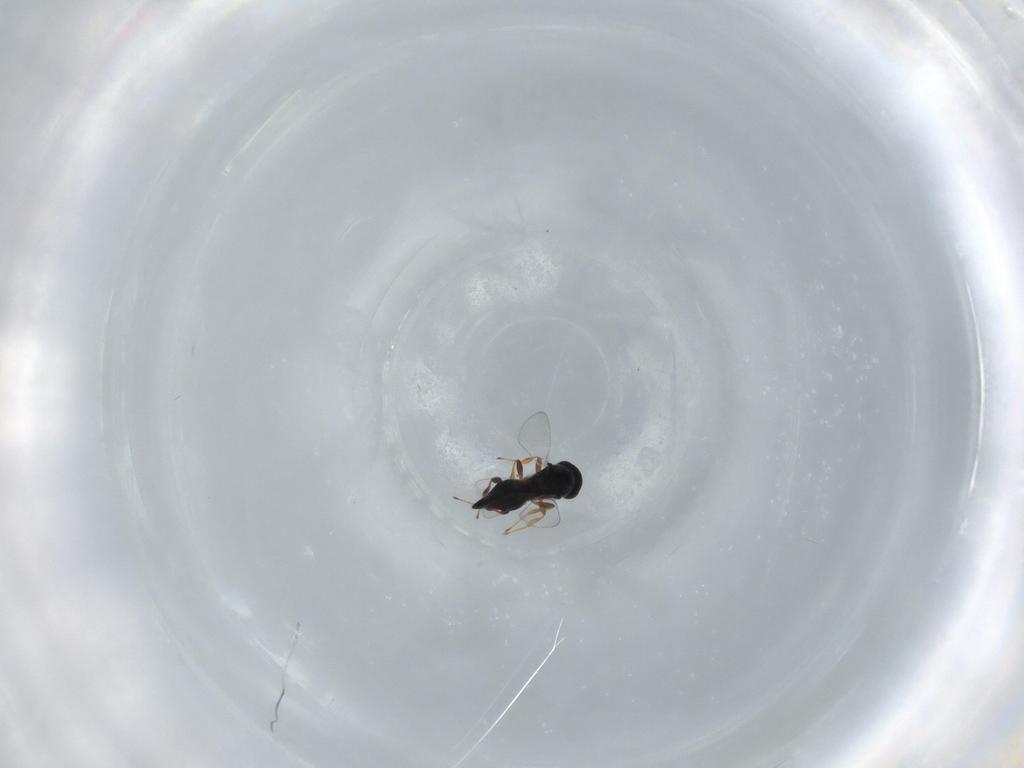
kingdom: Animalia
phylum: Arthropoda
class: Insecta
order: Hymenoptera
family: Platygastridae
